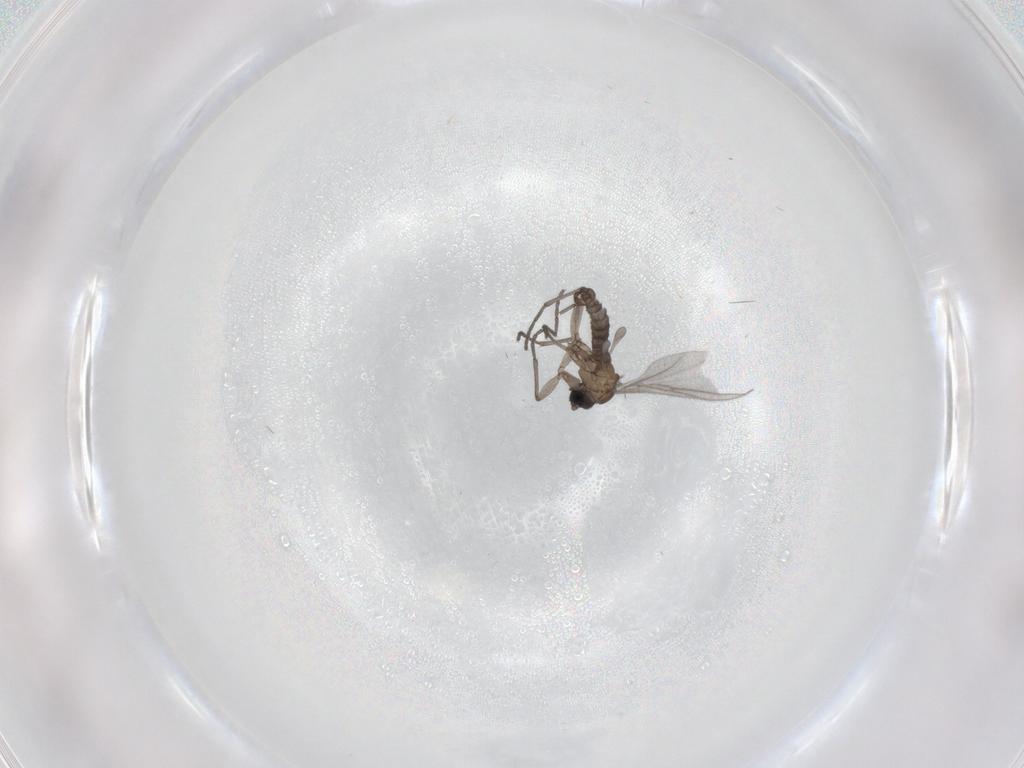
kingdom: Animalia
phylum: Arthropoda
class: Insecta
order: Diptera
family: Sciaridae
